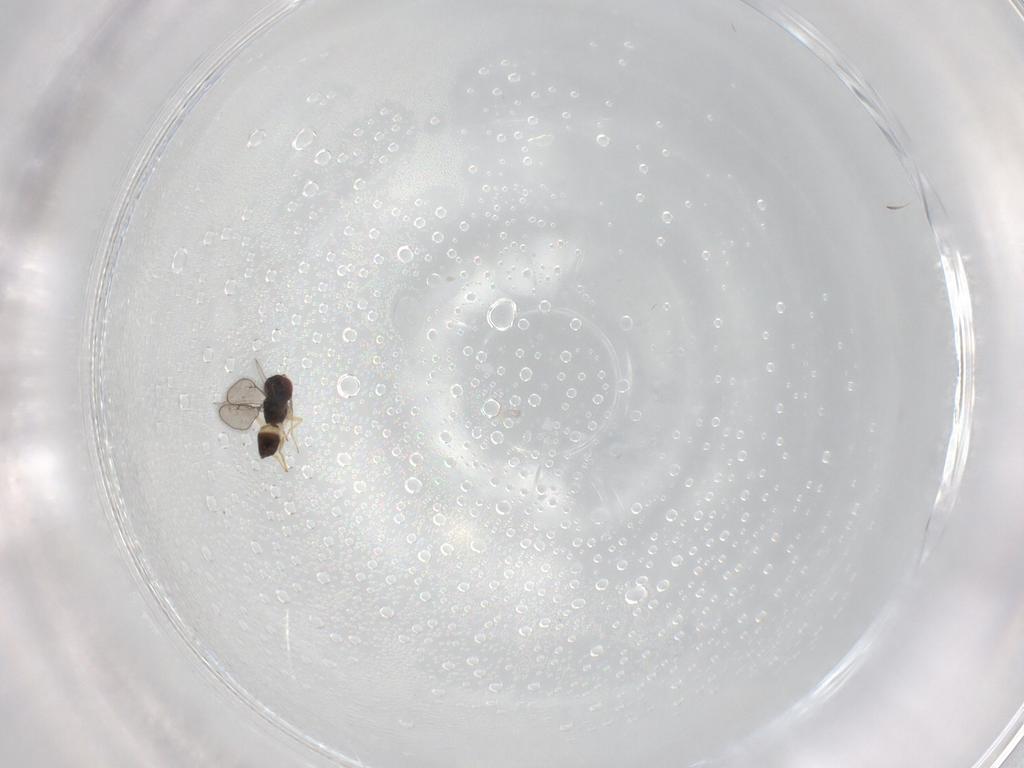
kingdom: Animalia
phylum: Arthropoda
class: Insecta
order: Hymenoptera
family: Eulophidae
